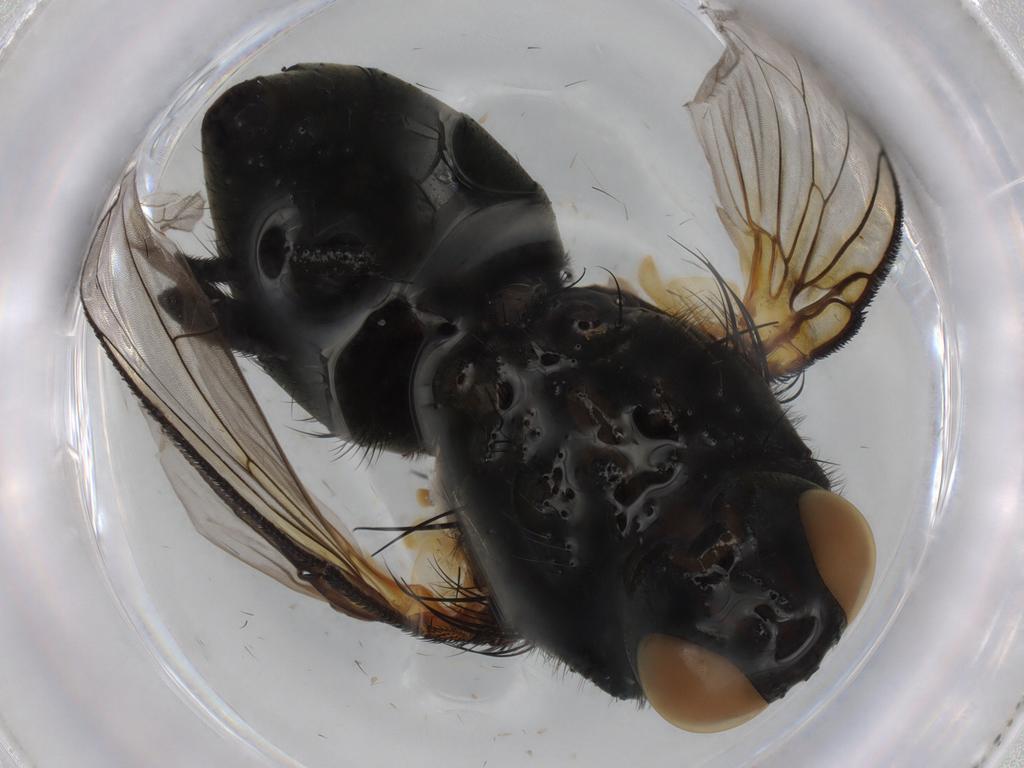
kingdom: Animalia
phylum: Arthropoda
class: Insecta
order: Diptera
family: Muscidae
